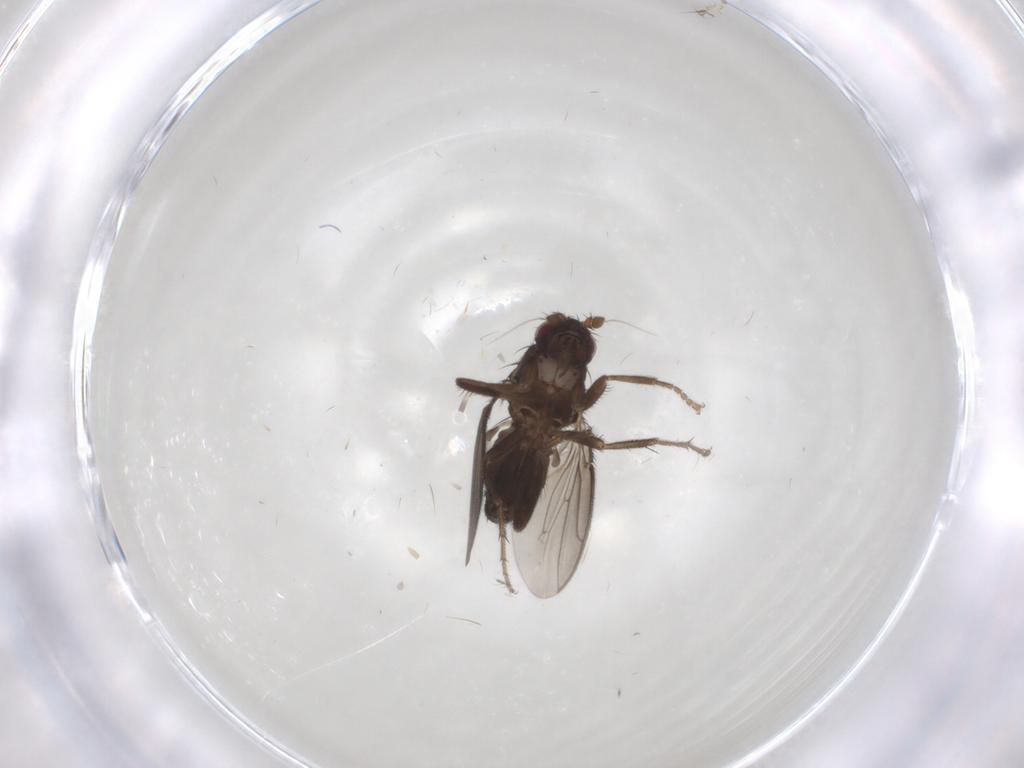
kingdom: Animalia
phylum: Arthropoda
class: Insecta
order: Diptera
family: Sphaeroceridae
